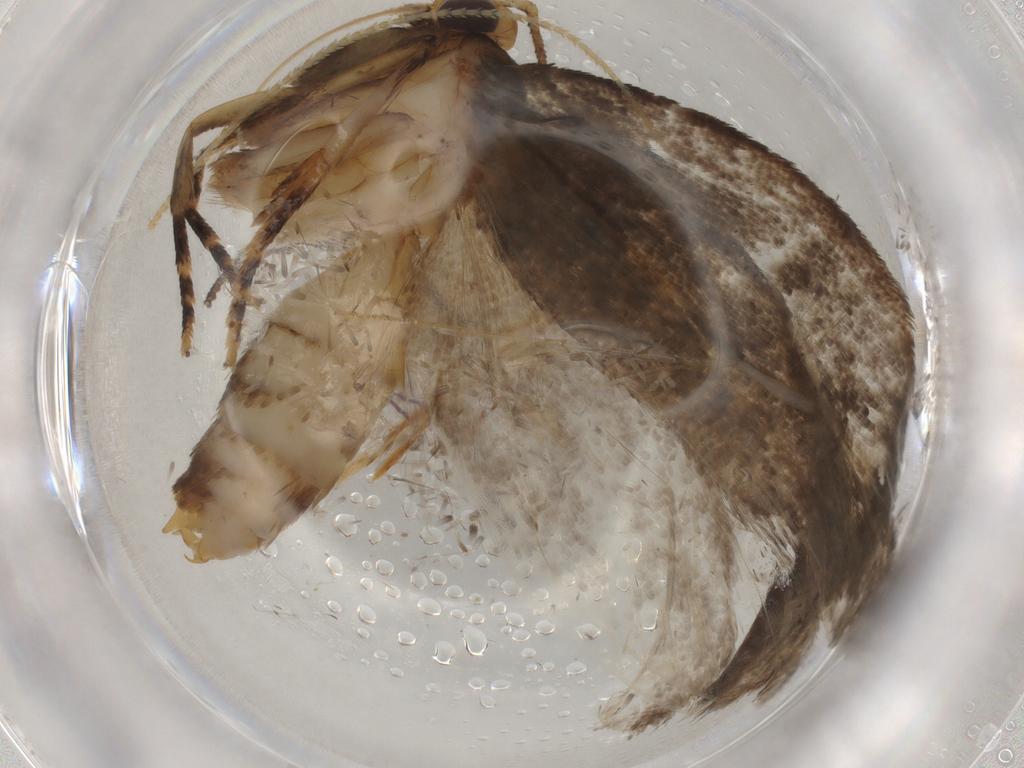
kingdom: Animalia
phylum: Arthropoda
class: Insecta
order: Lepidoptera
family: Oecophoridae
